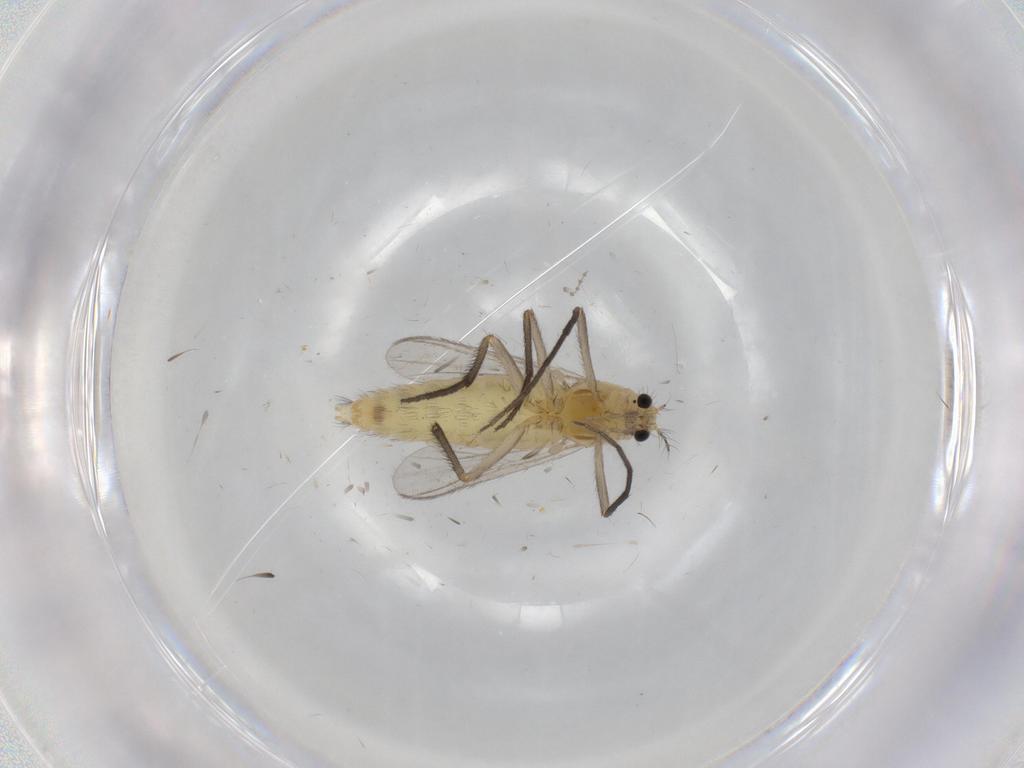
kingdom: Animalia
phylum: Arthropoda
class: Insecta
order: Diptera
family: Chironomidae
